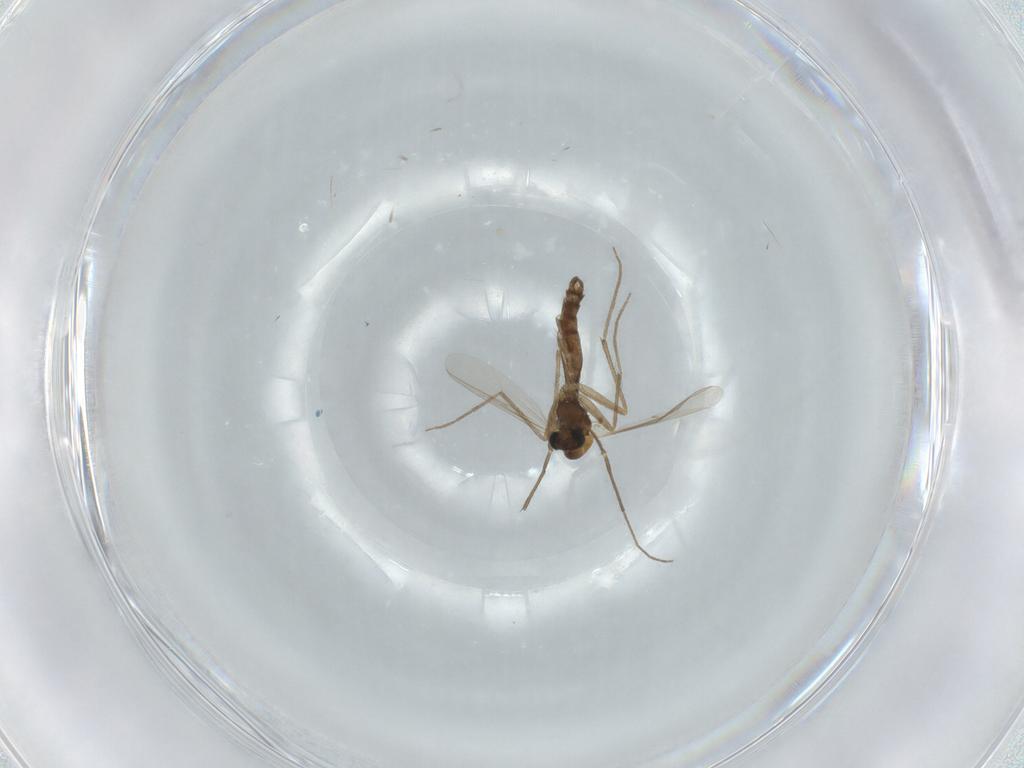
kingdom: Animalia
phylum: Arthropoda
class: Insecta
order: Diptera
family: Chironomidae
